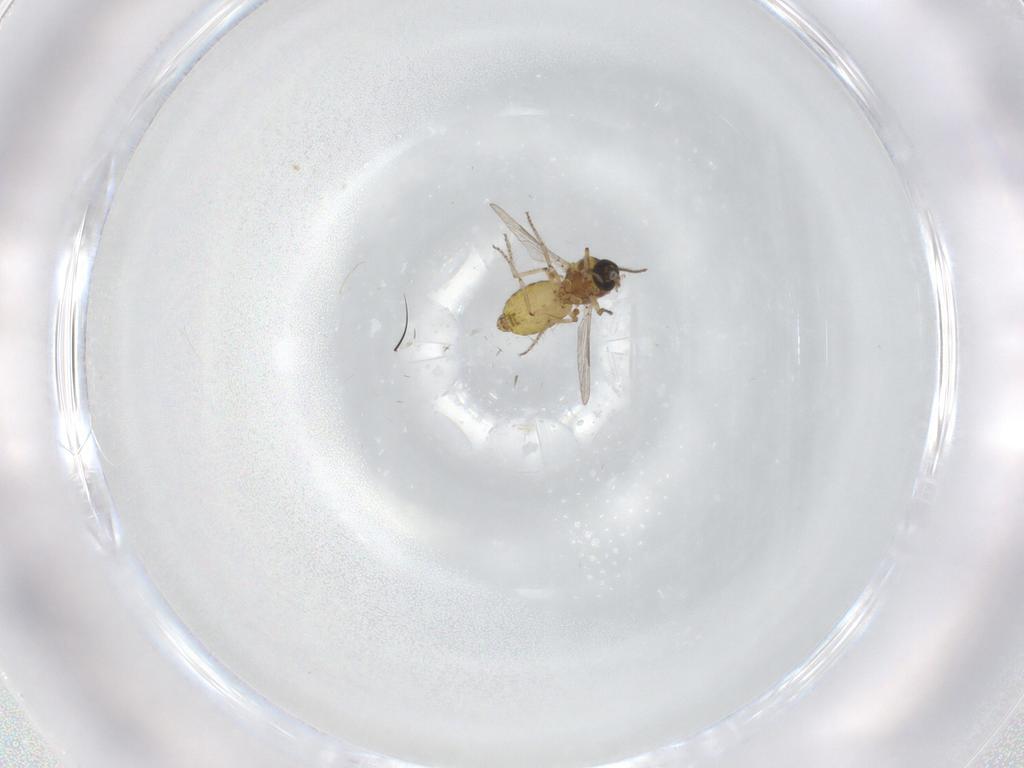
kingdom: Animalia
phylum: Arthropoda
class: Insecta
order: Diptera
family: Ceratopogonidae
